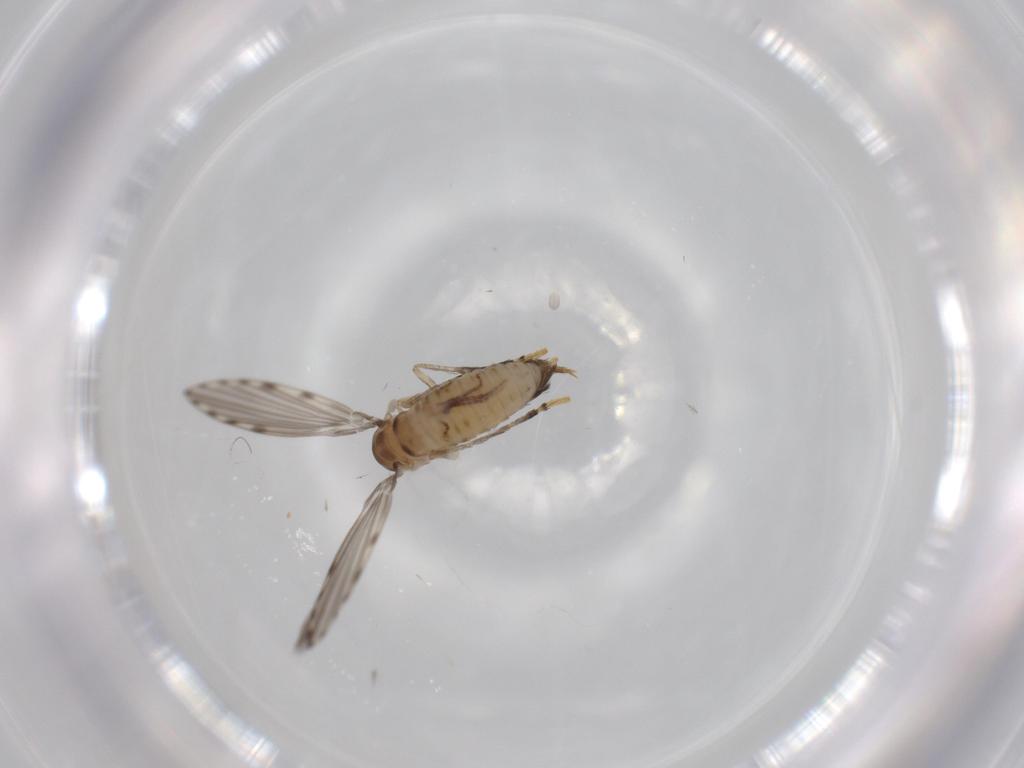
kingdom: Animalia
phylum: Arthropoda
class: Insecta
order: Diptera
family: Psychodidae
